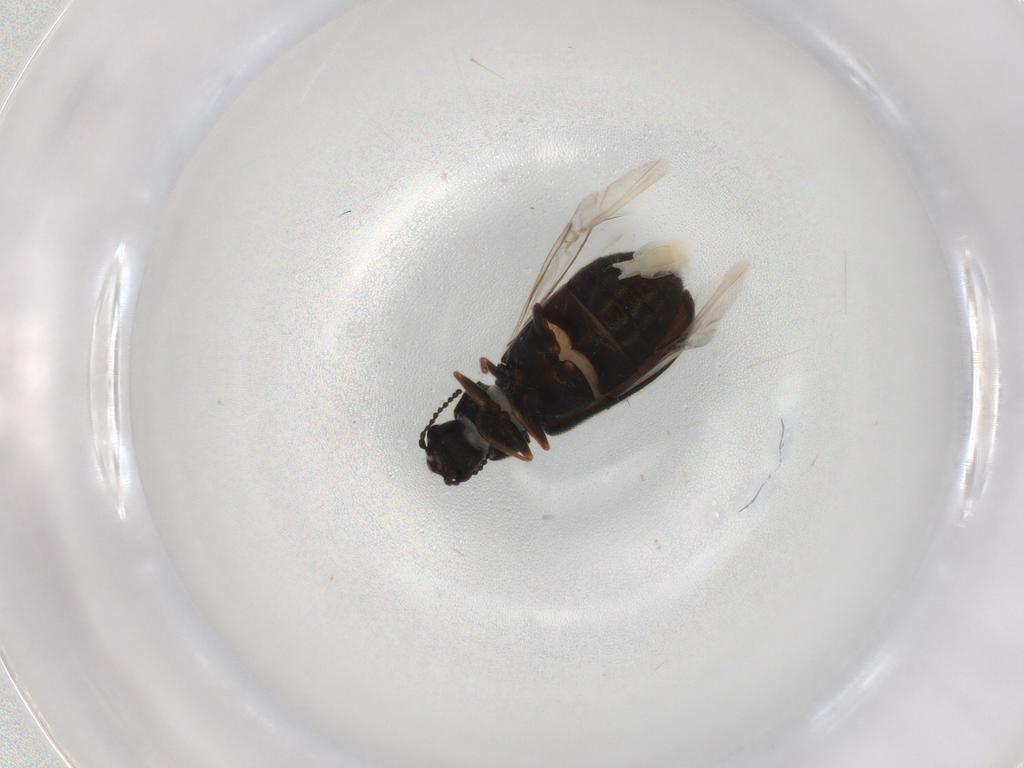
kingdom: Animalia
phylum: Arthropoda
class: Insecta
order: Coleoptera
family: Dasytidae
